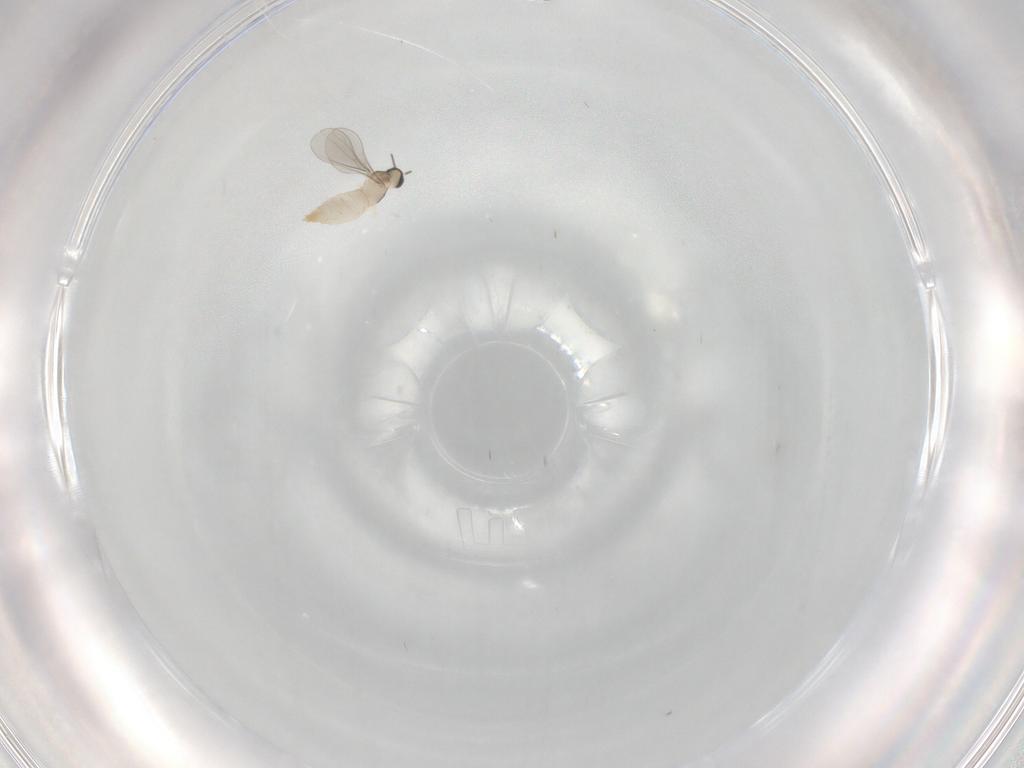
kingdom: Animalia
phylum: Arthropoda
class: Insecta
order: Diptera
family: Cecidomyiidae
